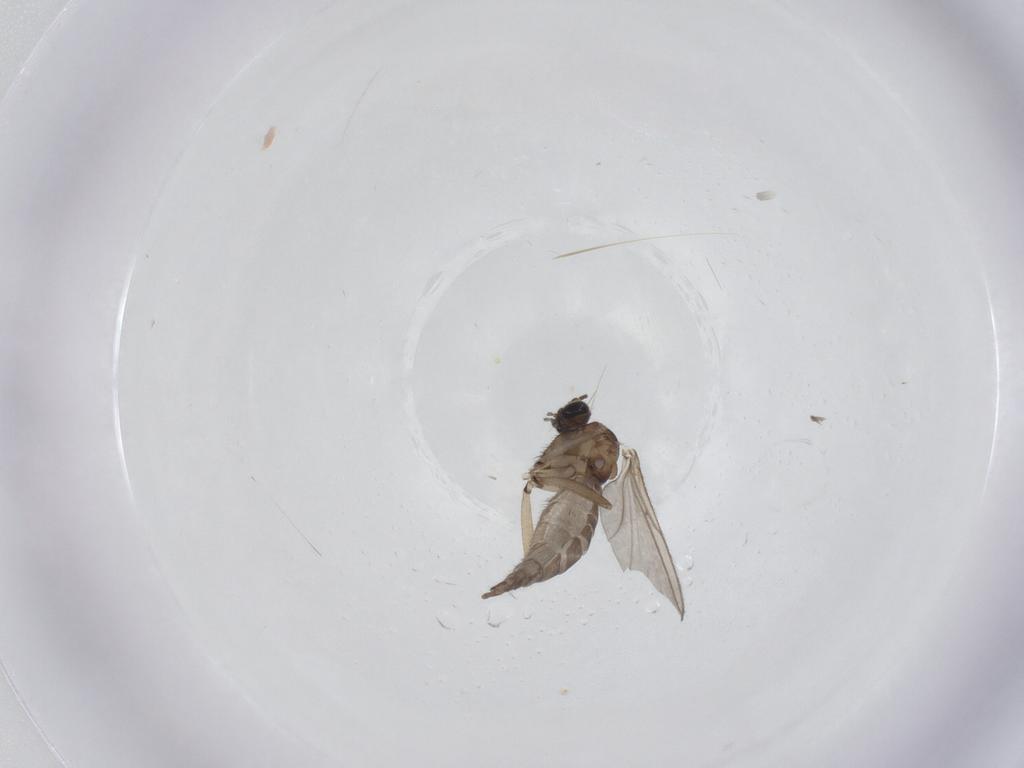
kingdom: Animalia
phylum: Arthropoda
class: Insecta
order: Diptera
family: Sciaridae
